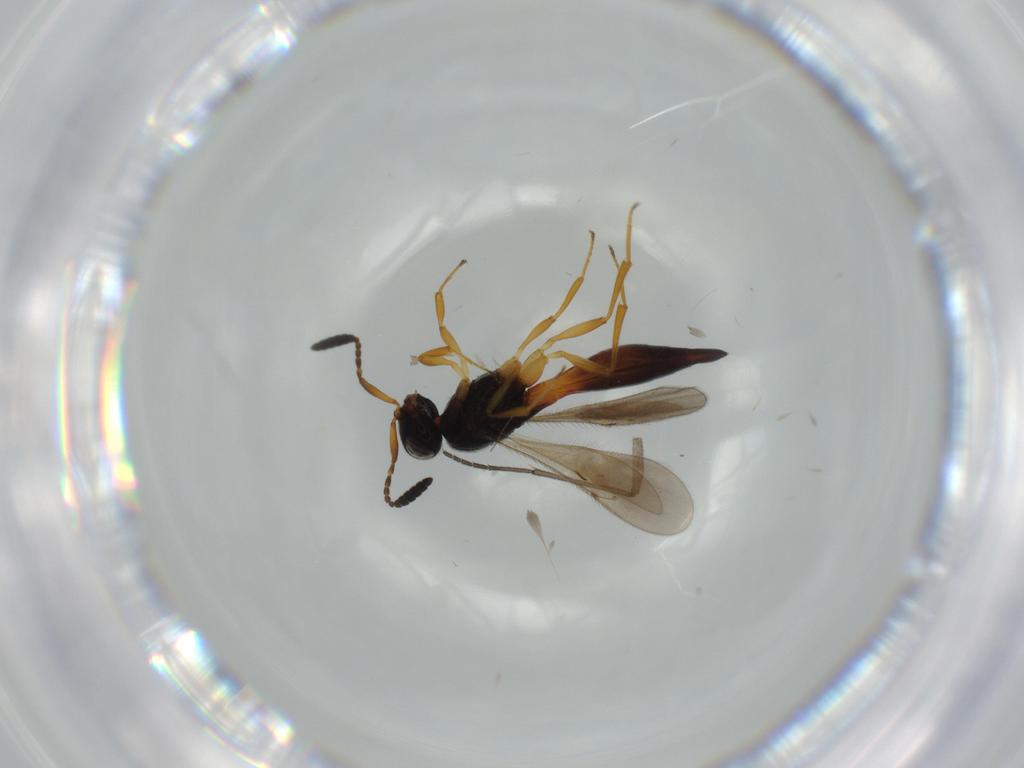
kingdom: Animalia
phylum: Arthropoda
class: Insecta
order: Hymenoptera
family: Scelionidae
